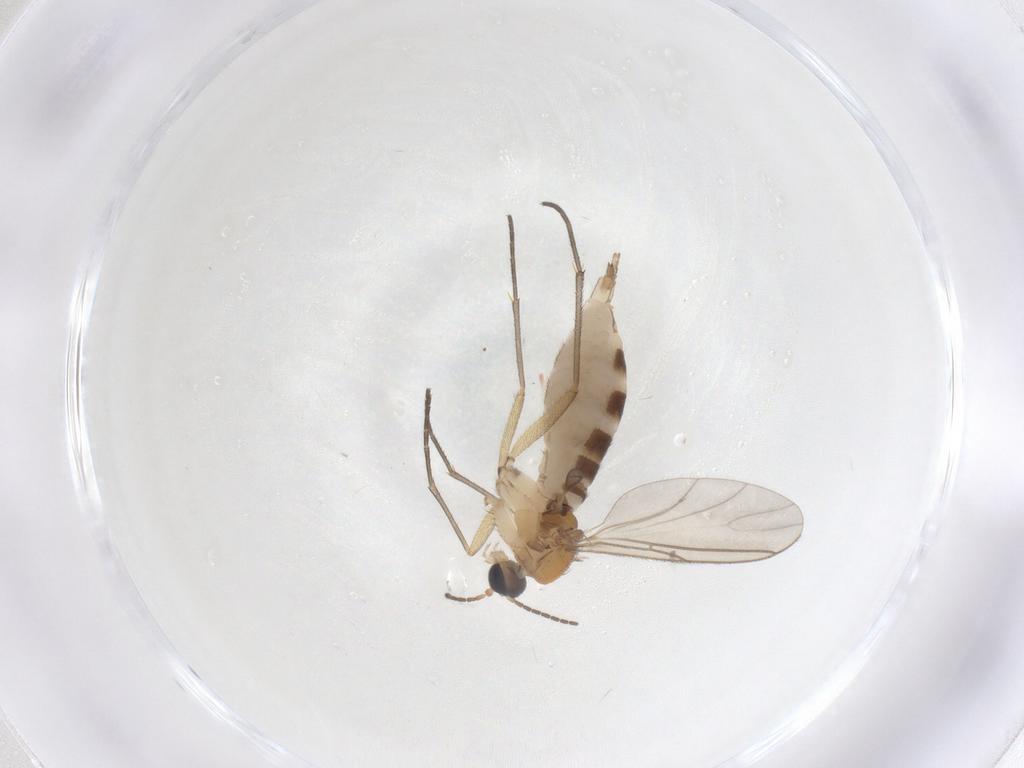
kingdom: Animalia
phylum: Arthropoda
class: Insecta
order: Diptera
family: Sciaridae
